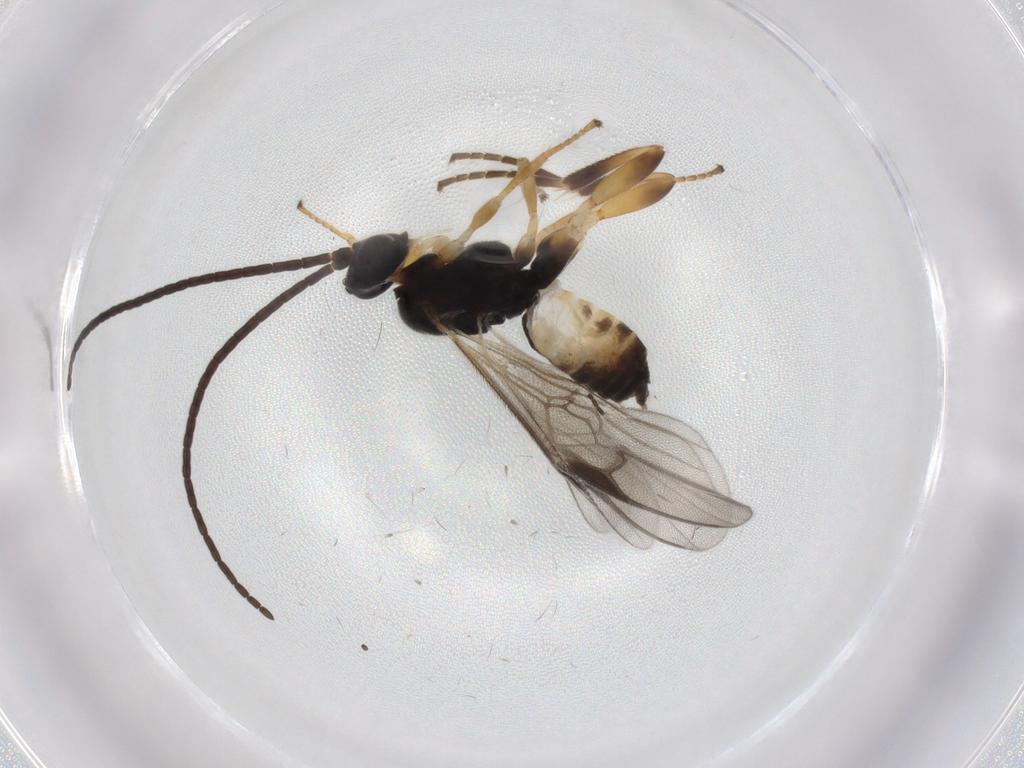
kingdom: Animalia
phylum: Arthropoda
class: Insecta
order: Hymenoptera
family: Braconidae
